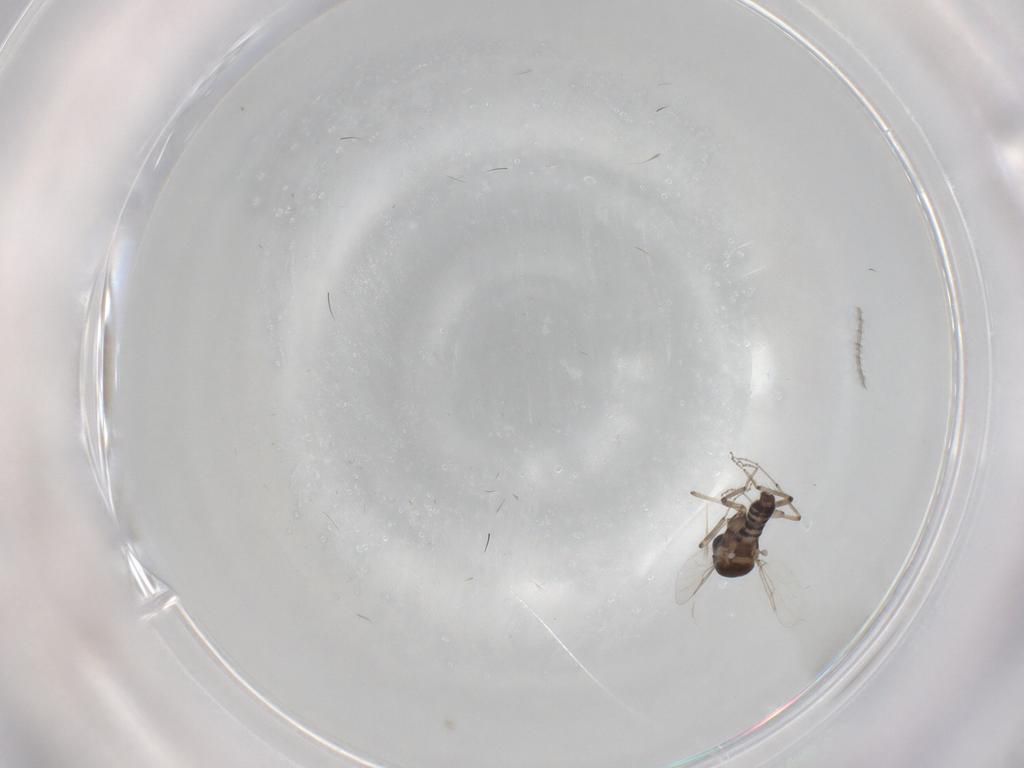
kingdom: Animalia
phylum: Arthropoda
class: Insecta
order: Diptera
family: Ceratopogonidae
